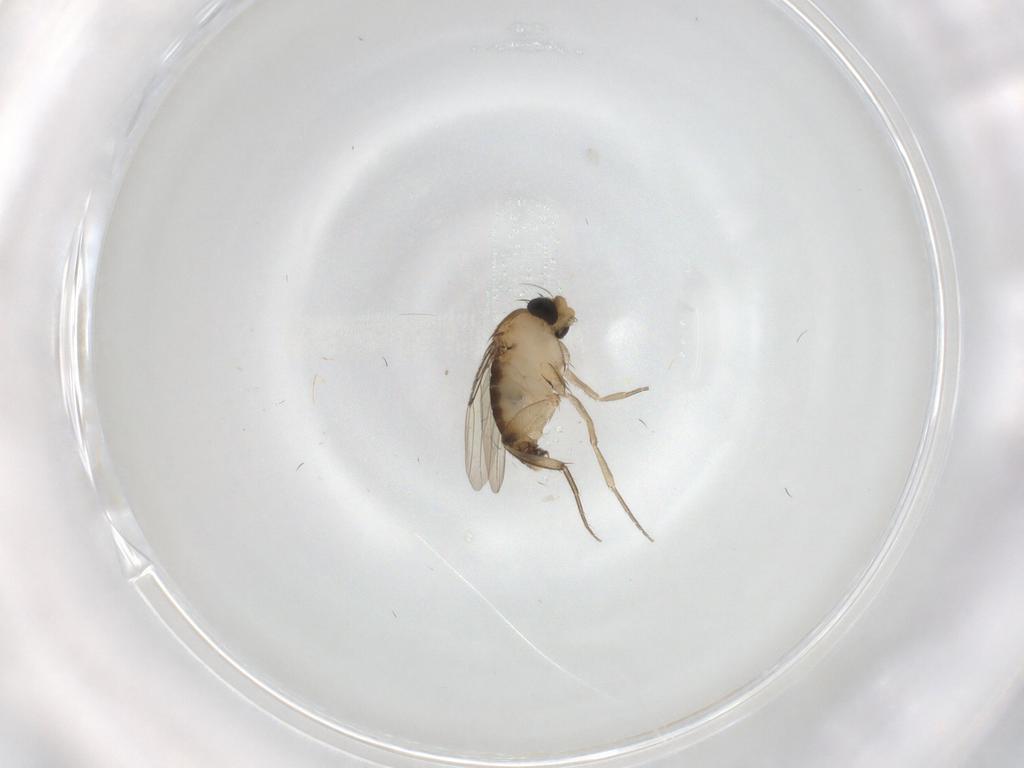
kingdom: Animalia
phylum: Arthropoda
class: Insecta
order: Diptera
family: Phoridae
